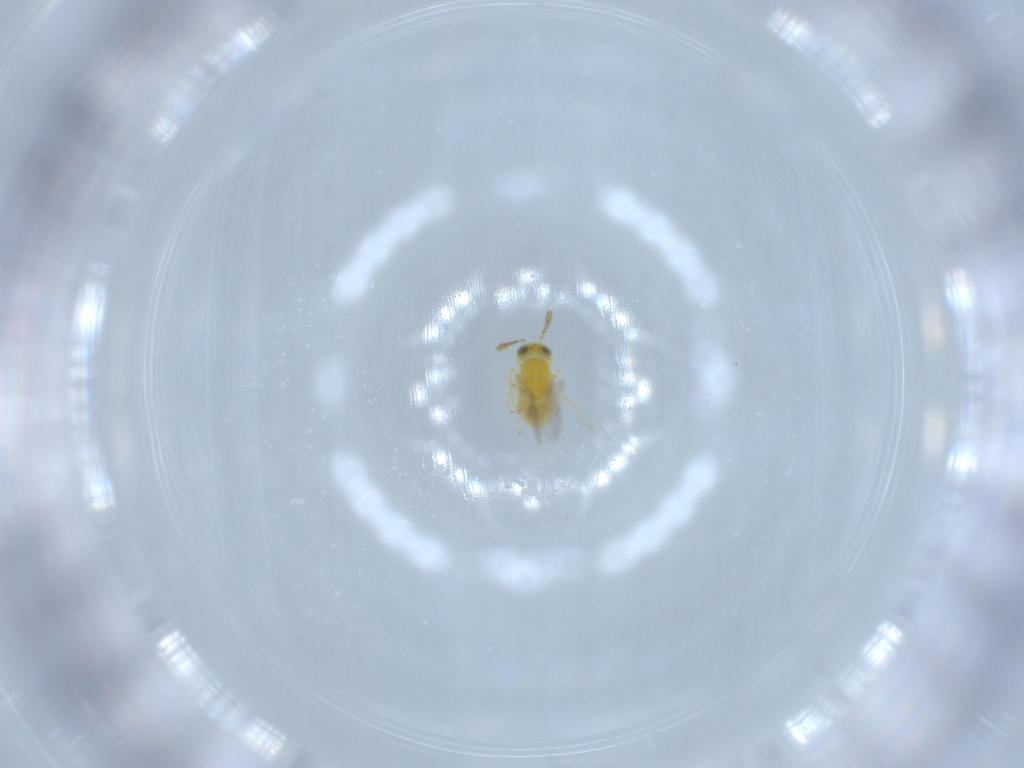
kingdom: Animalia
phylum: Arthropoda
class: Insecta
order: Hymenoptera
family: Encyrtidae
